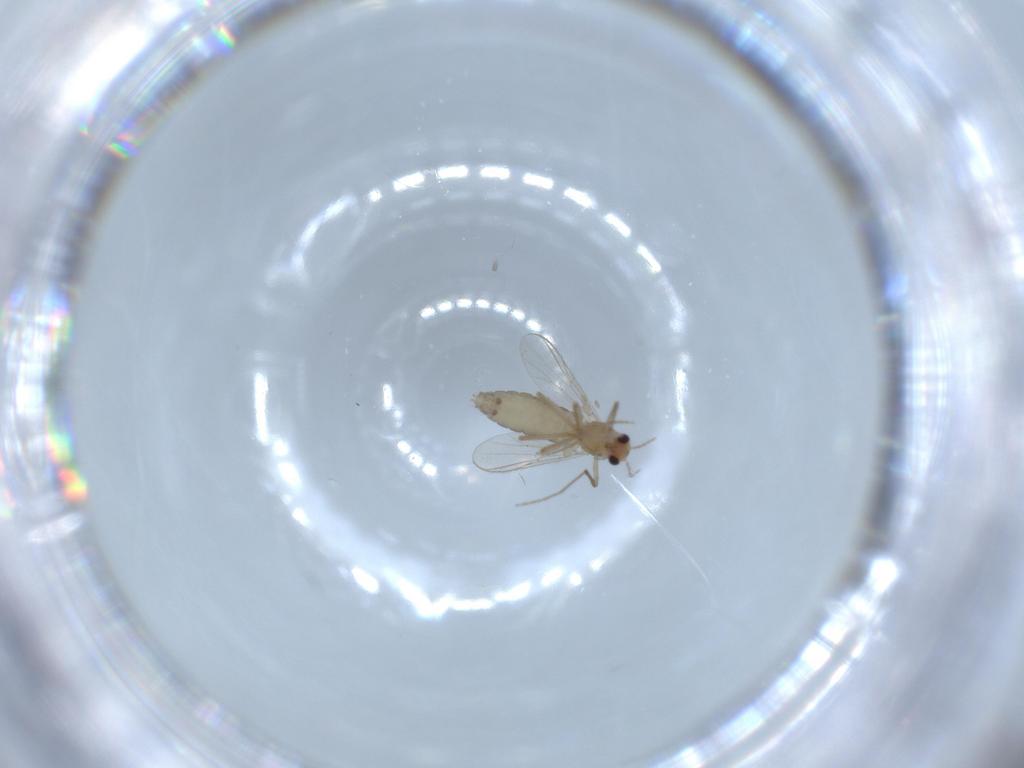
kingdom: Animalia
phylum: Arthropoda
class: Insecta
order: Diptera
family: Chironomidae
